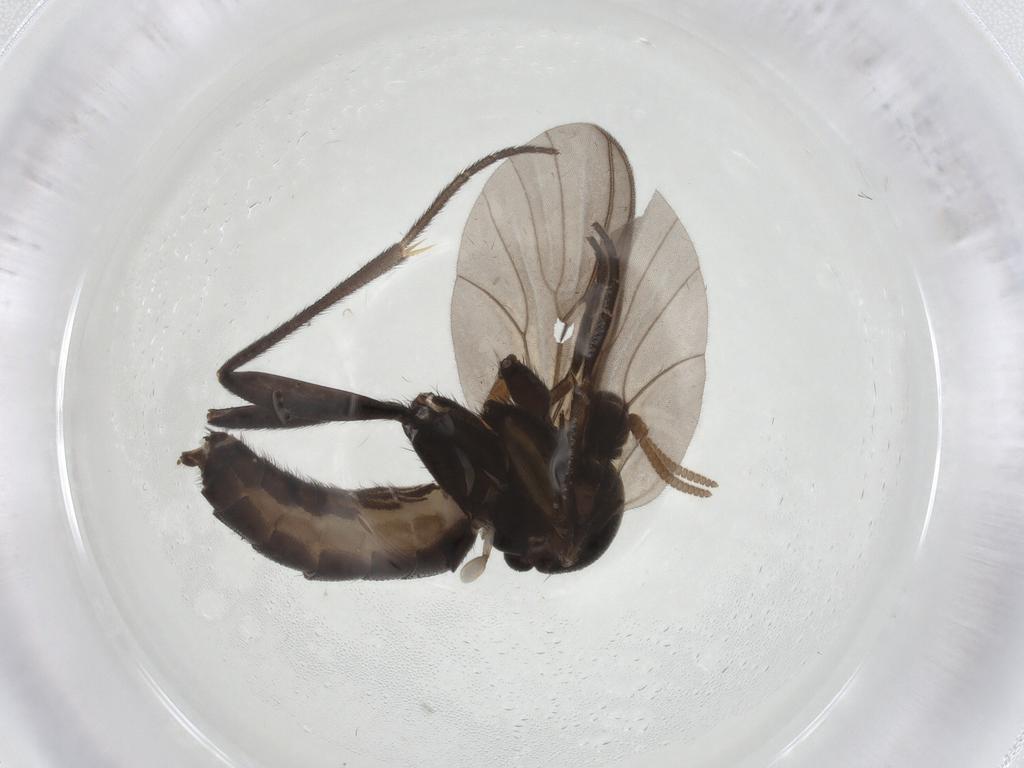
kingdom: Animalia
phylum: Arthropoda
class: Insecta
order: Diptera
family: Mycetophilidae
